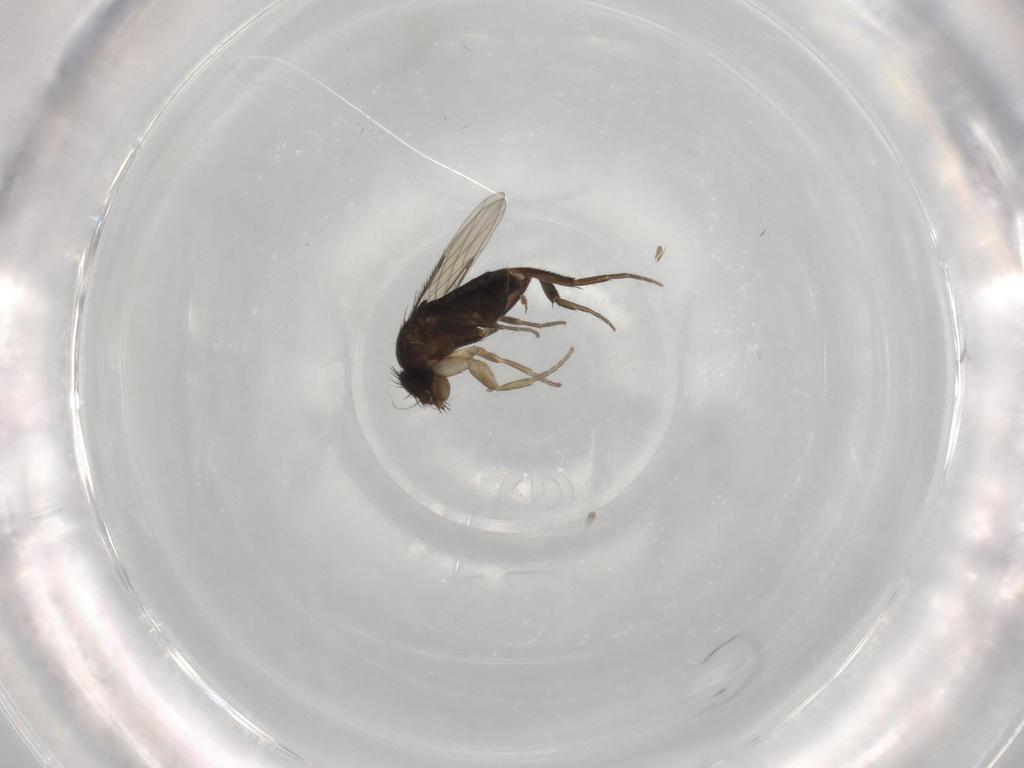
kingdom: Animalia
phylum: Arthropoda
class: Insecta
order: Diptera
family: Phoridae
